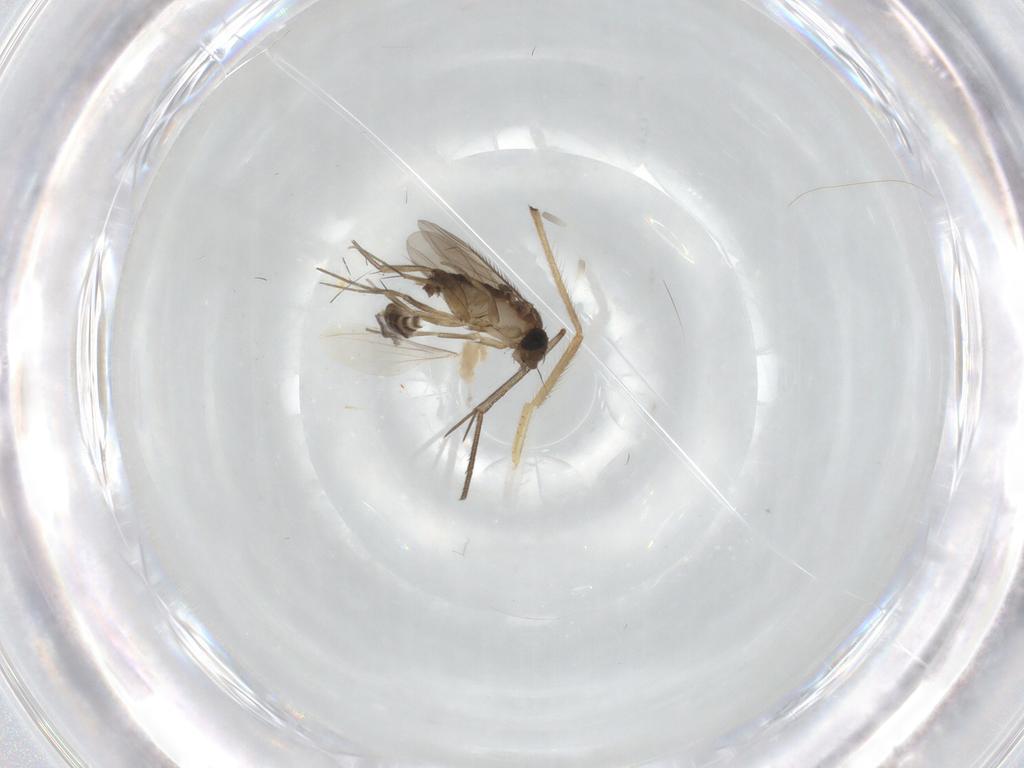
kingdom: Animalia
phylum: Arthropoda
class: Insecta
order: Diptera
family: Phoridae
